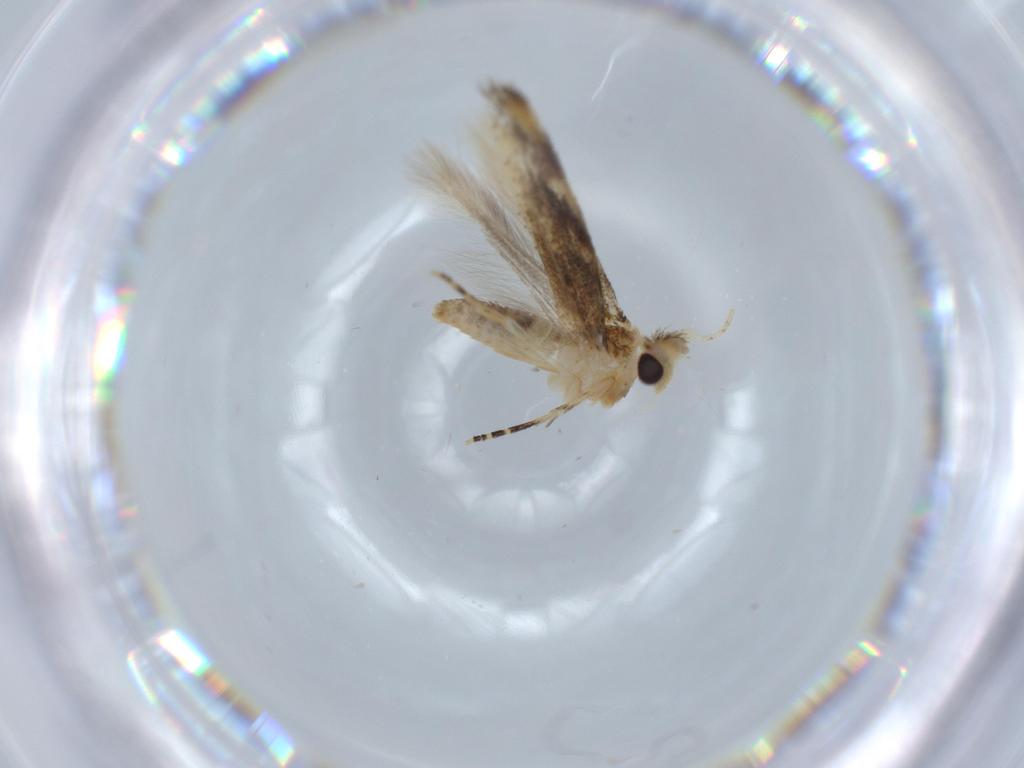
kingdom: Animalia
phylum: Arthropoda
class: Insecta
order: Lepidoptera
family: Bucculatricidae
